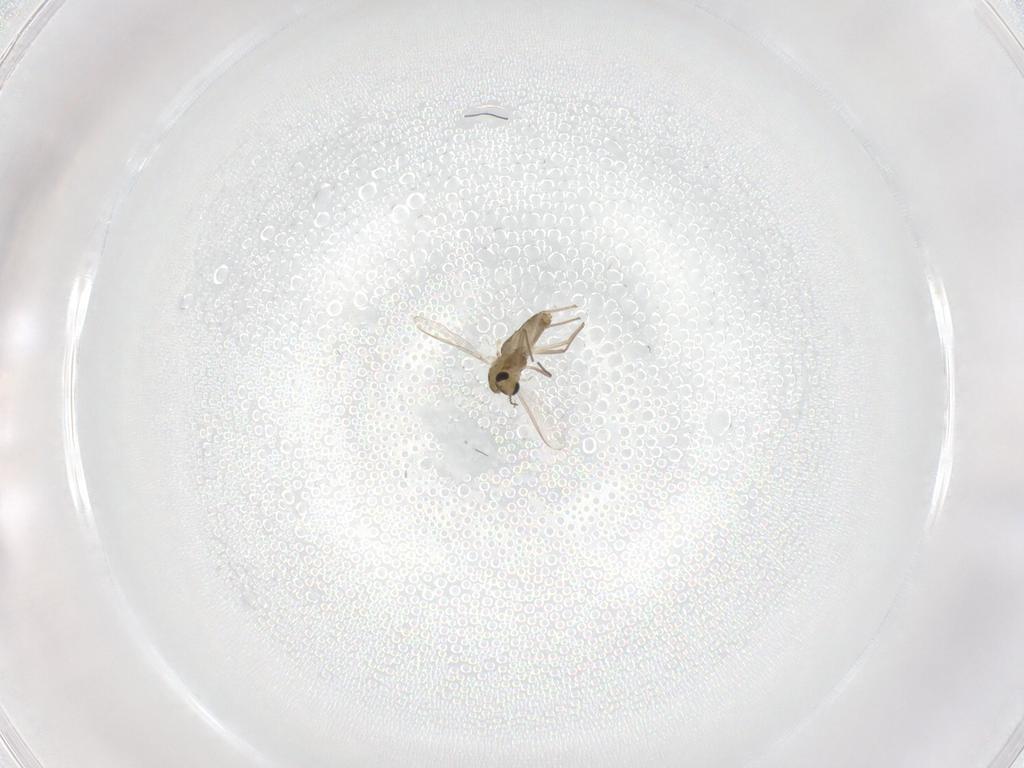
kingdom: Animalia
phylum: Arthropoda
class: Insecta
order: Diptera
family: Chironomidae
